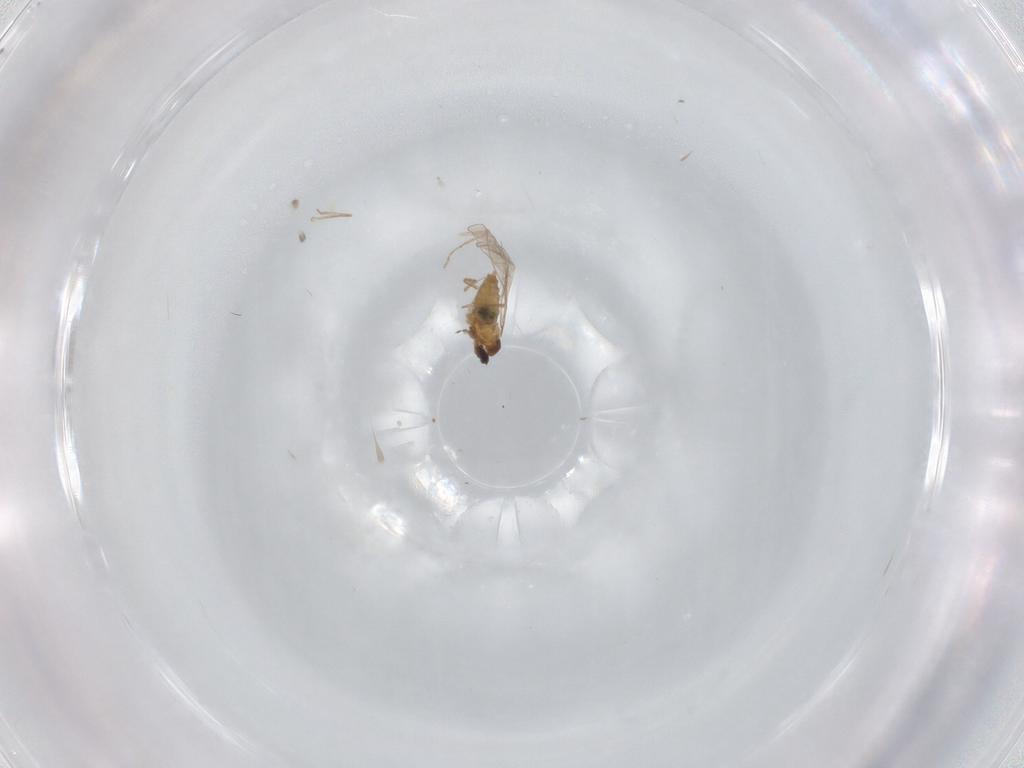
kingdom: Animalia
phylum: Arthropoda
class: Insecta
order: Diptera
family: Cecidomyiidae
